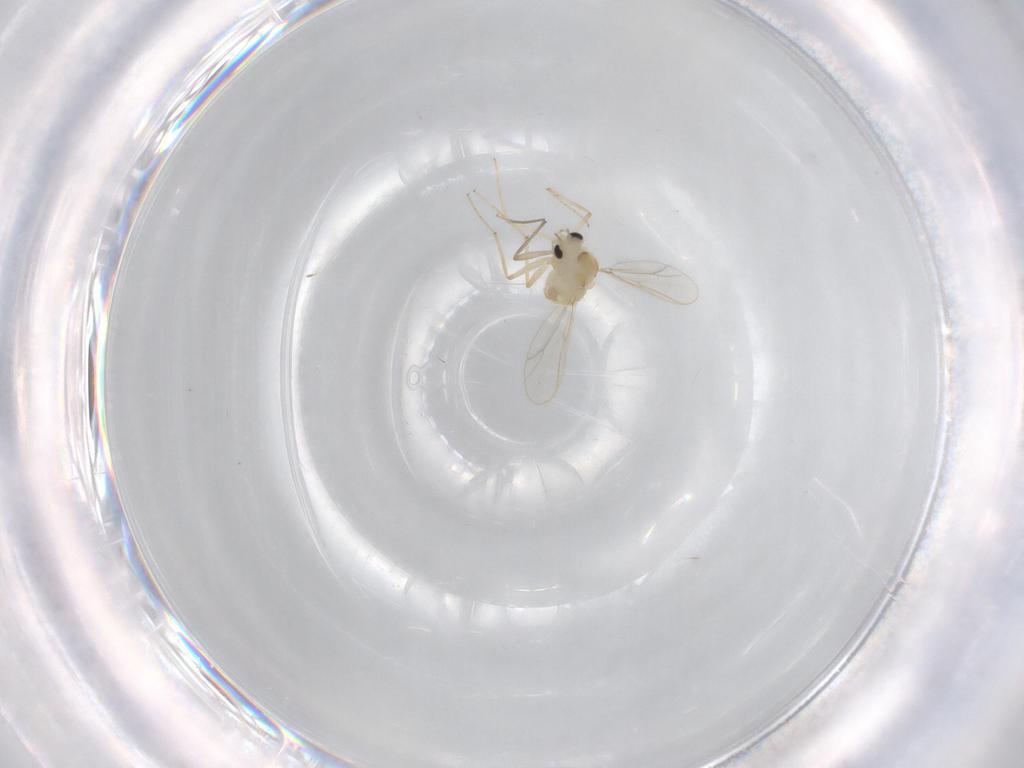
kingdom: Animalia
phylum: Arthropoda
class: Insecta
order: Diptera
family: Chironomidae
